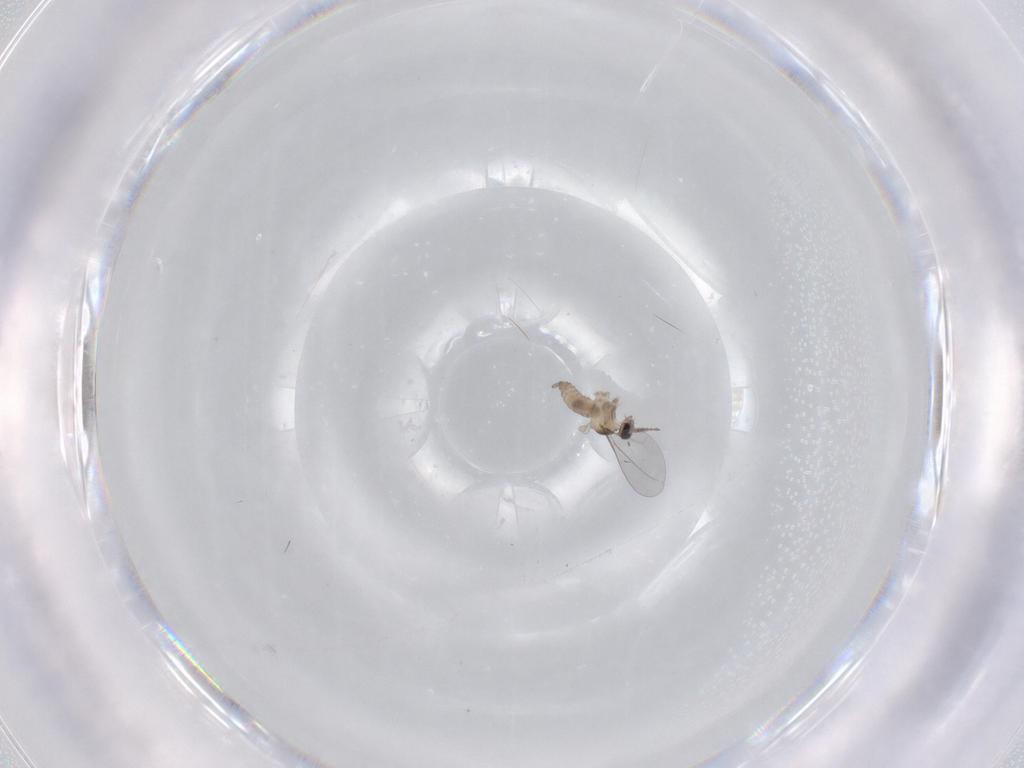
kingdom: Animalia
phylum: Arthropoda
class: Insecta
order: Diptera
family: Cecidomyiidae
